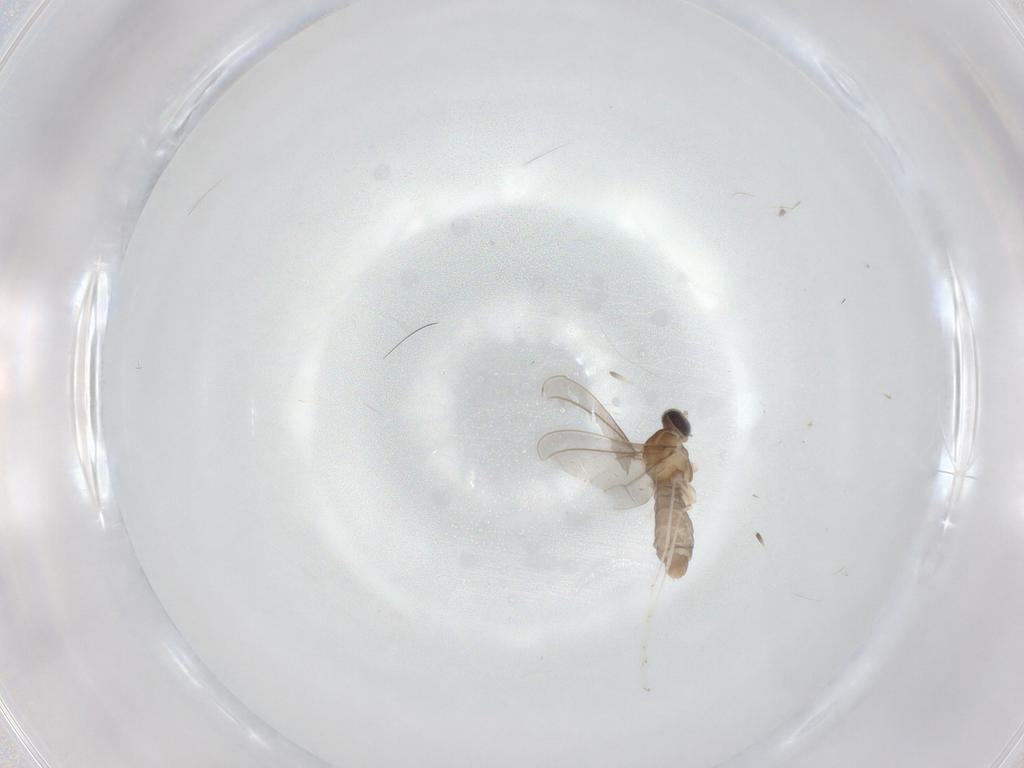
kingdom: Animalia
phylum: Arthropoda
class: Insecta
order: Diptera
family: Cecidomyiidae
